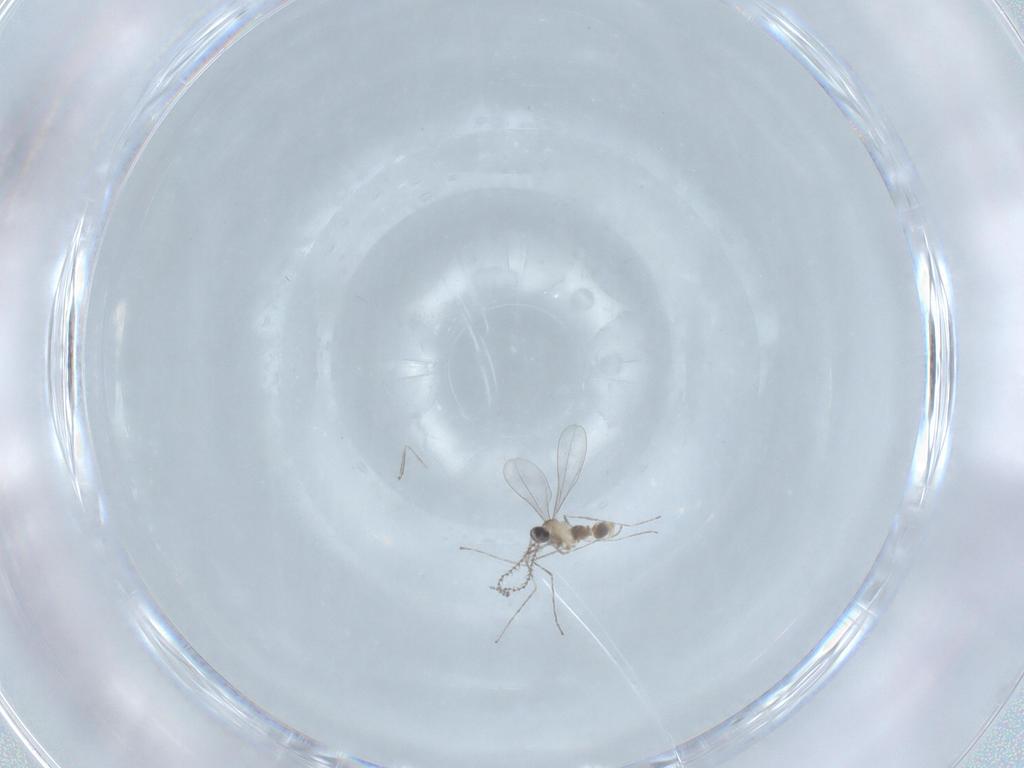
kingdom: Animalia
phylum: Arthropoda
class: Insecta
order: Diptera
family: Cecidomyiidae
